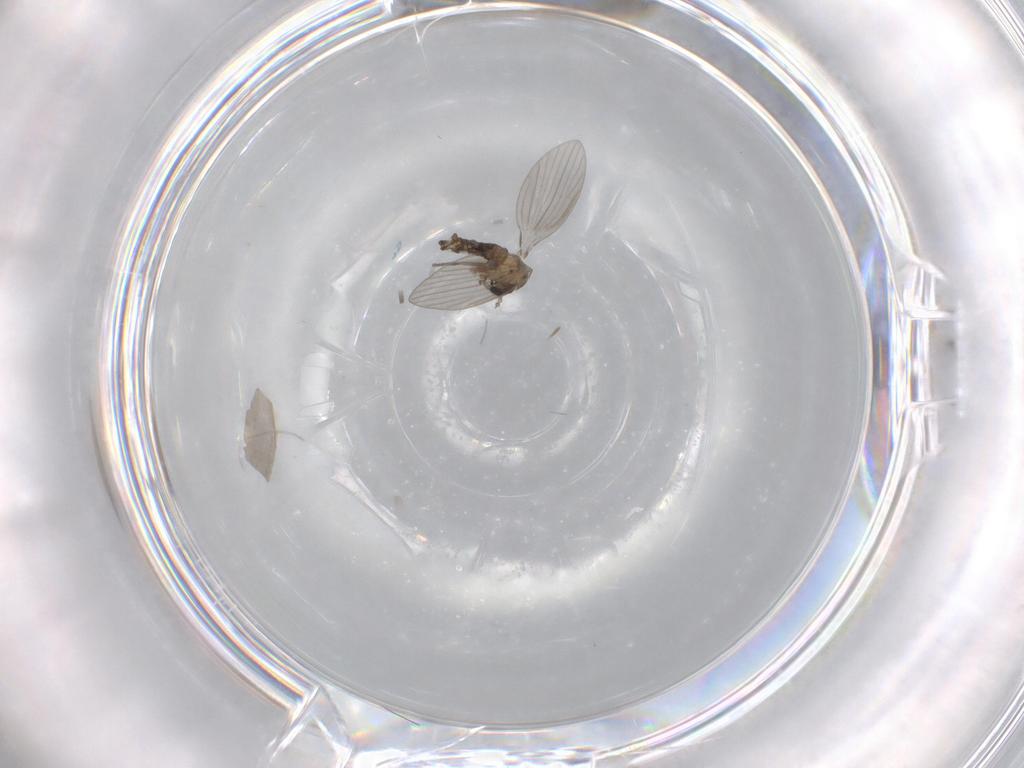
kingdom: Animalia
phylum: Arthropoda
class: Insecta
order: Diptera
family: Psychodidae
